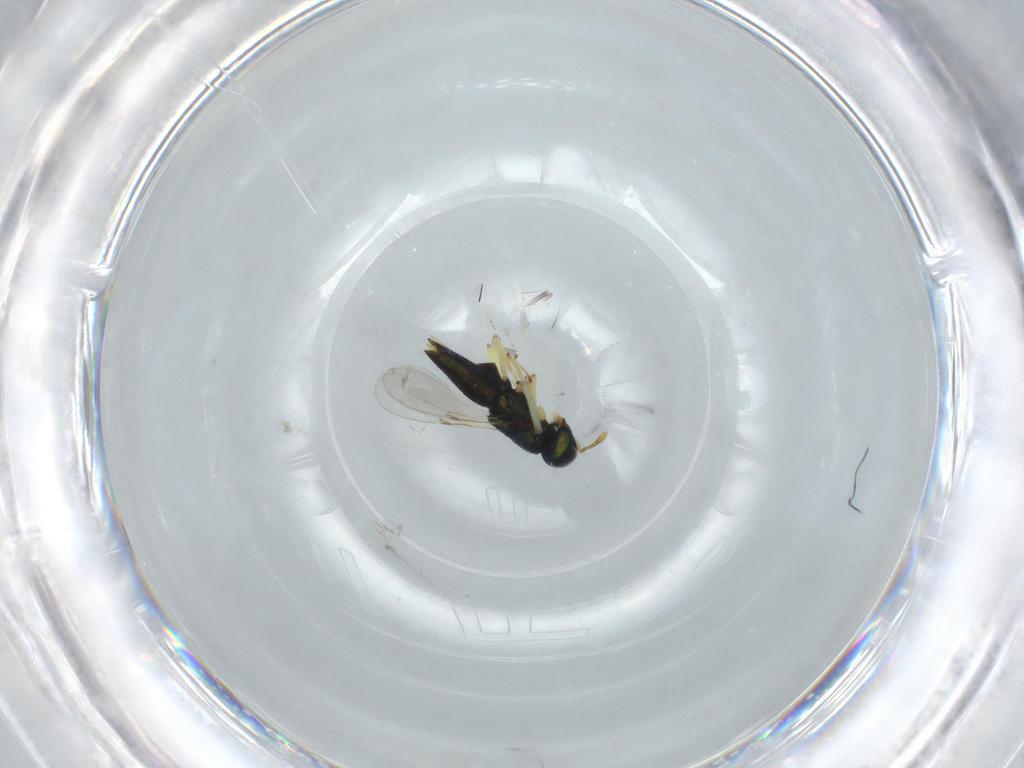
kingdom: Animalia
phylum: Arthropoda
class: Insecta
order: Hymenoptera
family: Encyrtidae
